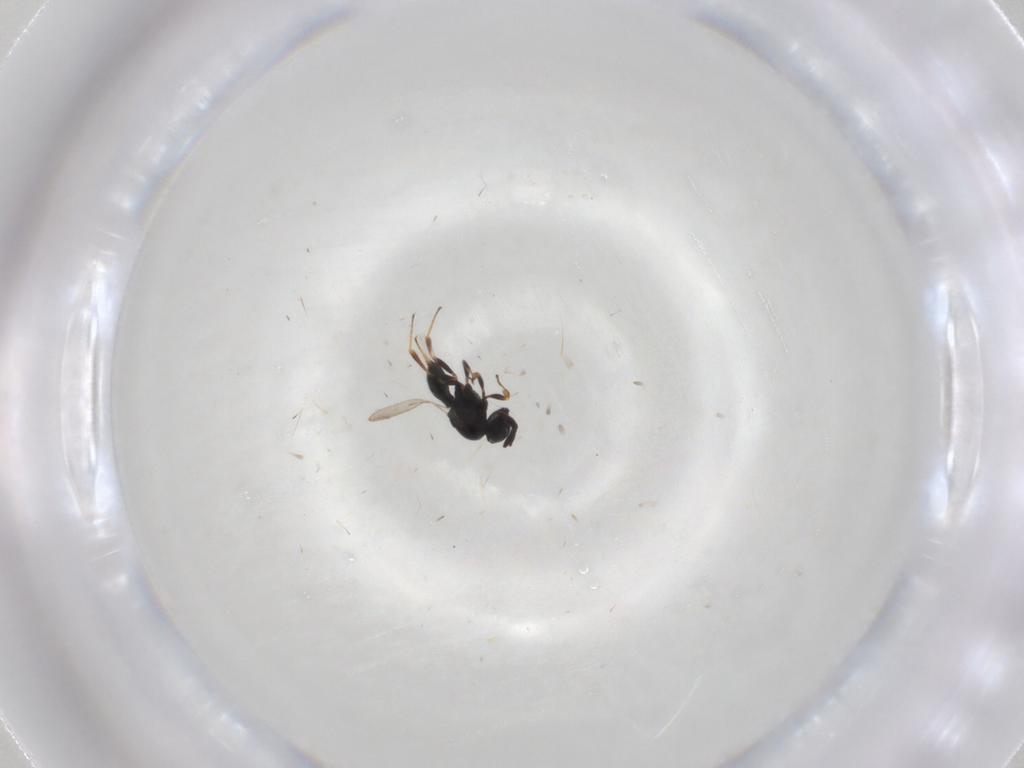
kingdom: Animalia
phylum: Arthropoda
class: Insecta
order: Hymenoptera
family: Scelionidae
